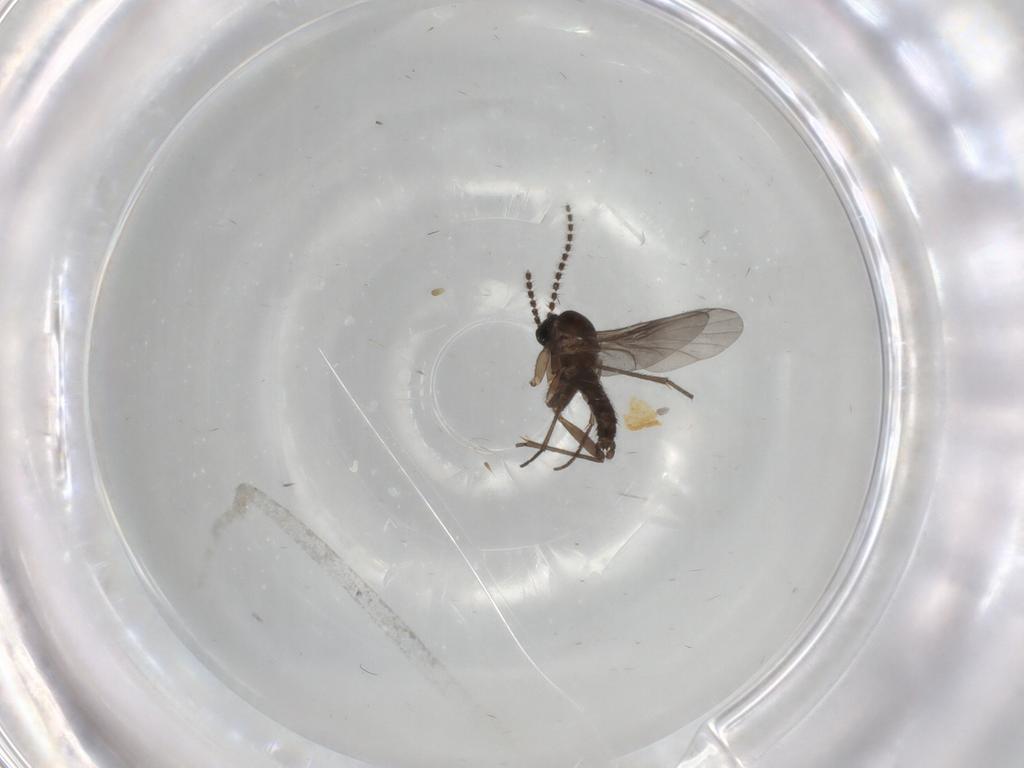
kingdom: Animalia
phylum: Arthropoda
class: Insecta
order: Diptera
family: Sciaridae
